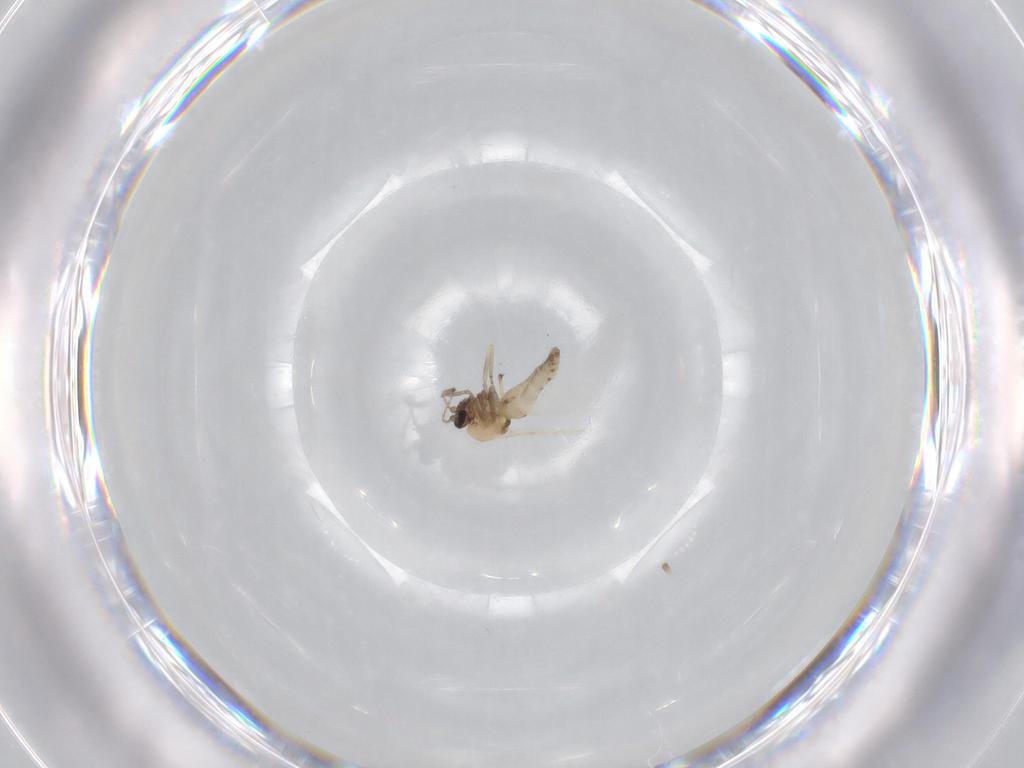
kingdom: Animalia
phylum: Arthropoda
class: Insecta
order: Diptera
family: Ceratopogonidae
